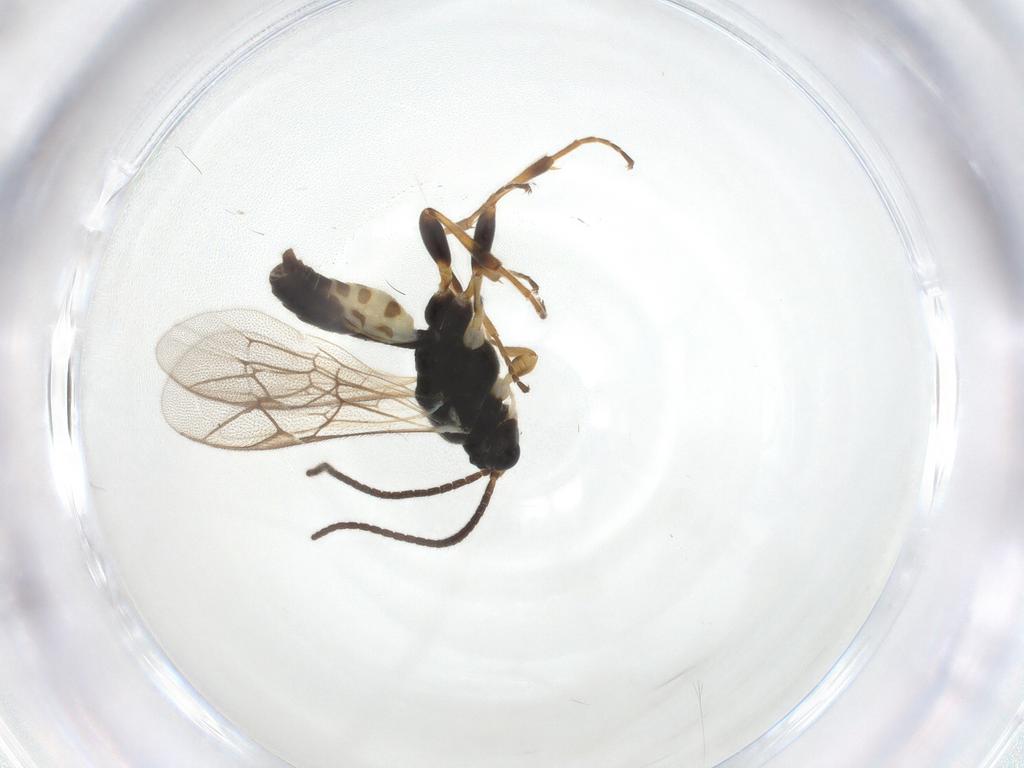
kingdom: Animalia
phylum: Arthropoda
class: Insecta
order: Hymenoptera
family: Ichneumonidae
